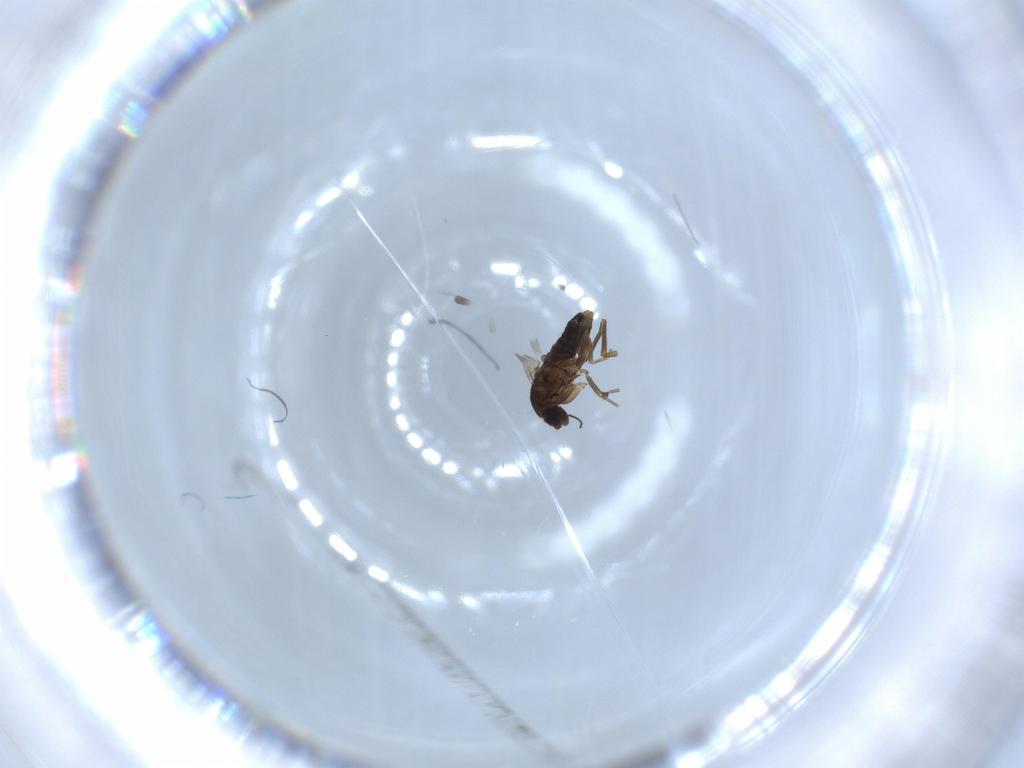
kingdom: Animalia
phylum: Arthropoda
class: Insecta
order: Diptera
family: Phoridae
